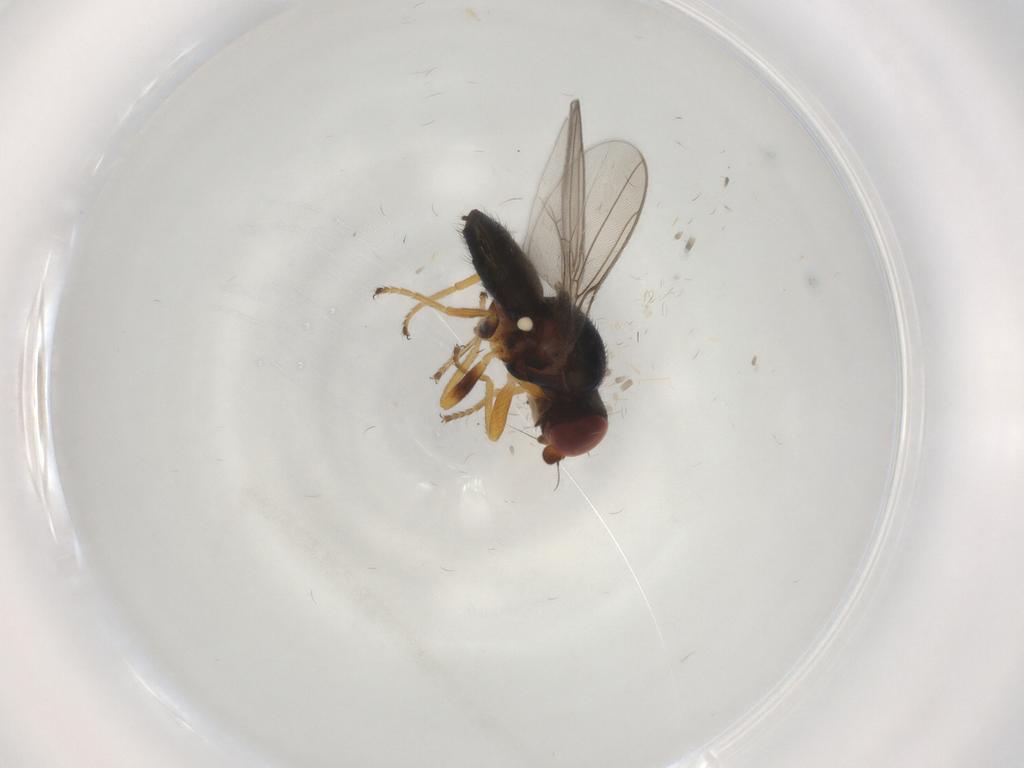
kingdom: Animalia
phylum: Arthropoda
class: Insecta
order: Diptera
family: Chloropidae
